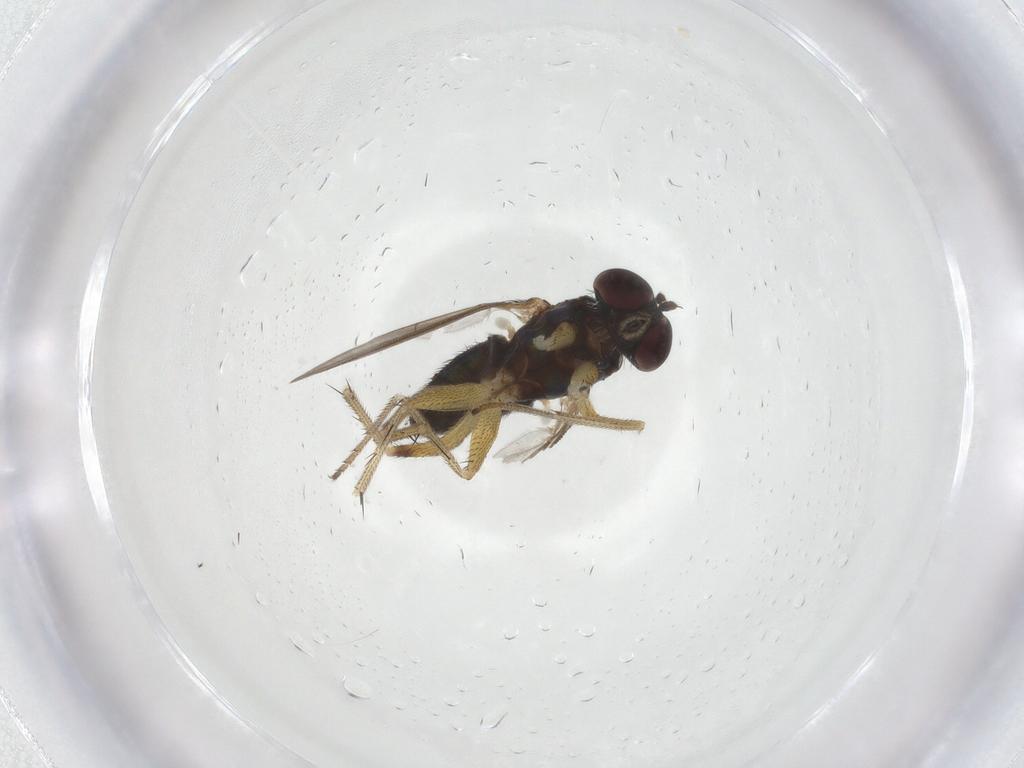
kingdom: Animalia
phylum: Arthropoda
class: Insecta
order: Diptera
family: Dolichopodidae
